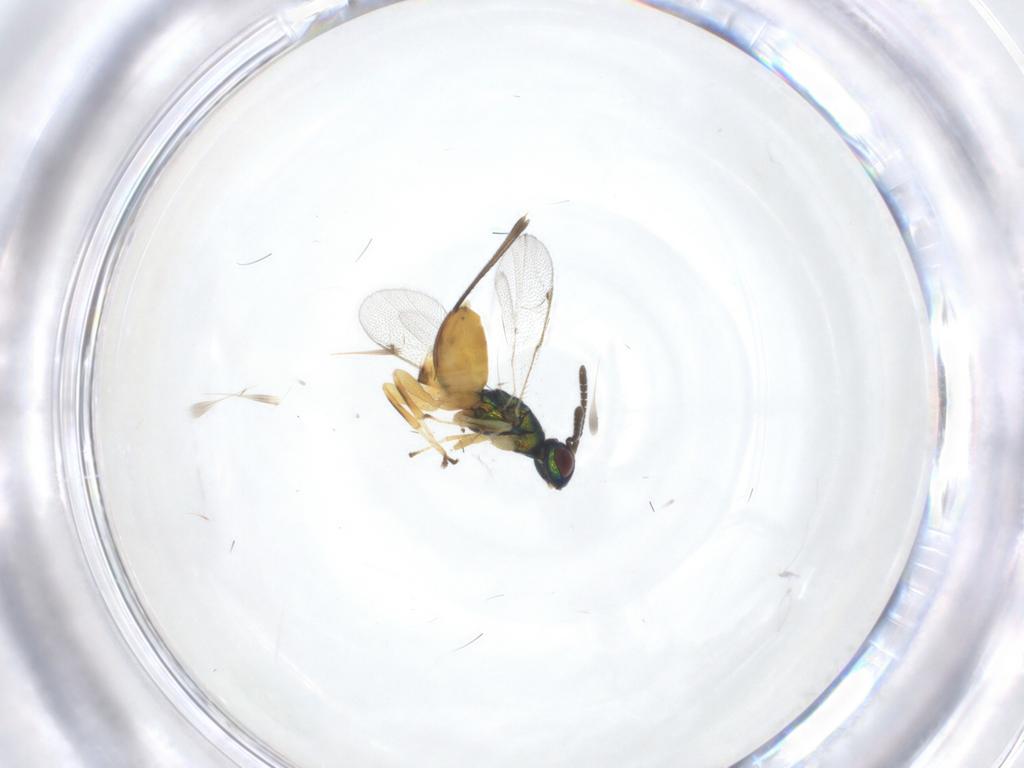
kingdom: Animalia
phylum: Arthropoda
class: Insecta
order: Hymenoptera
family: Torymidae
